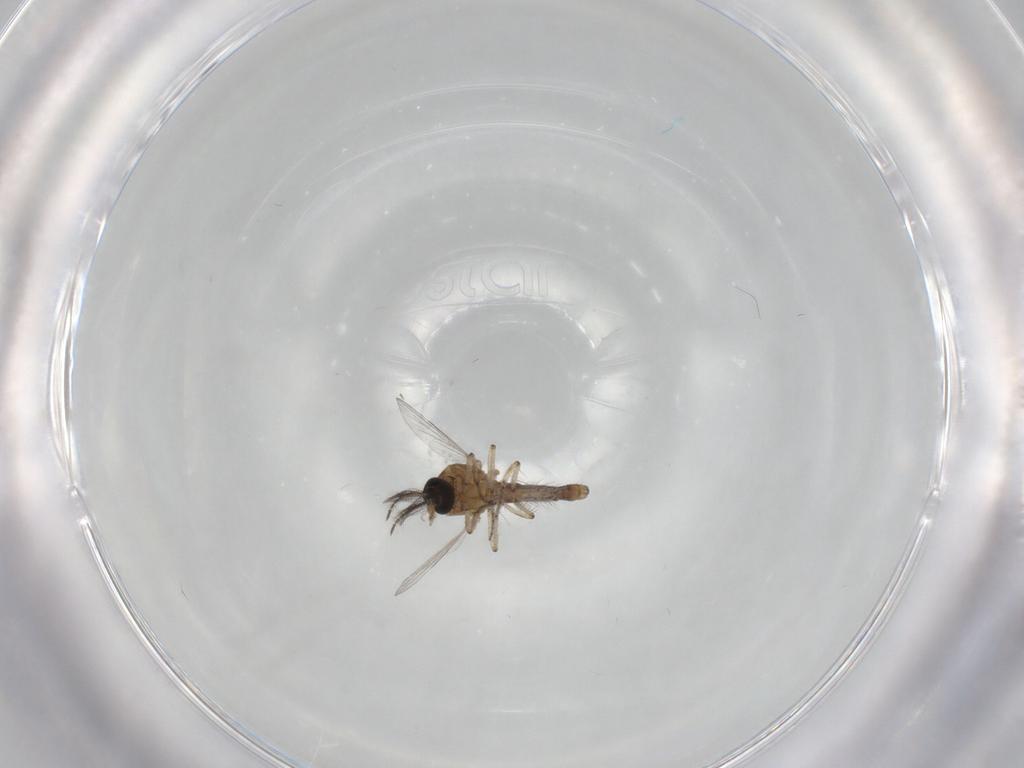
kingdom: Animalia
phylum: Arthropoda
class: Insecta
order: Diptera
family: Ceratopogonidae
